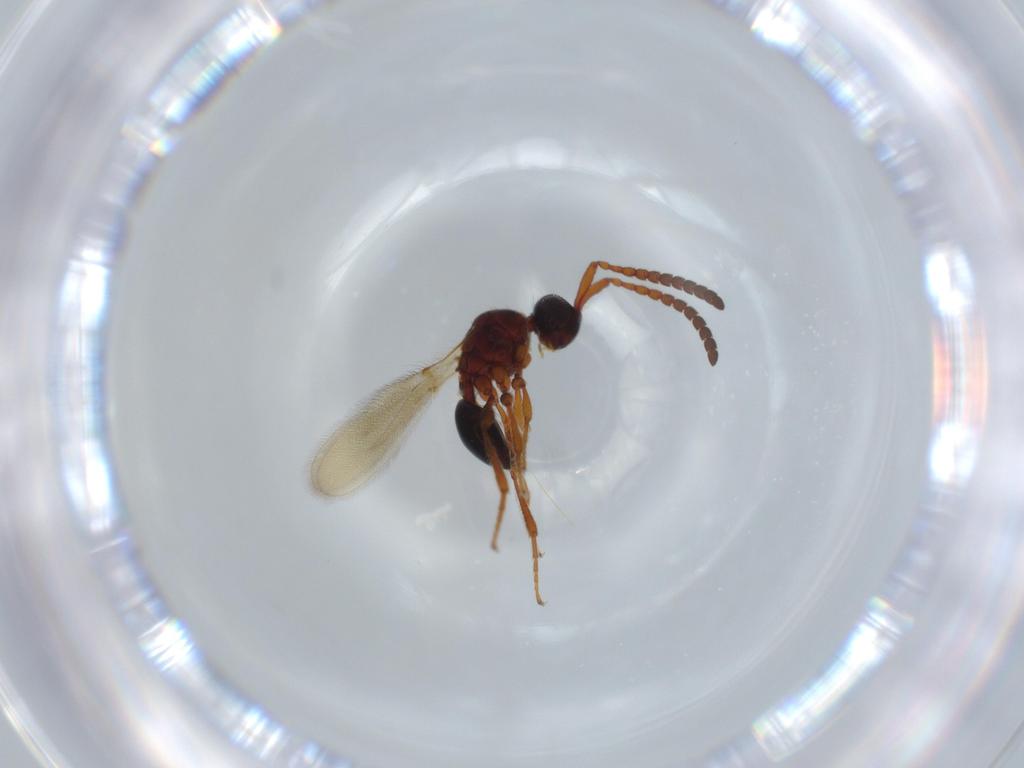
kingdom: Animalia
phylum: Arthropoda
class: Insecta
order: Hymenoptera
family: Diapriidae
